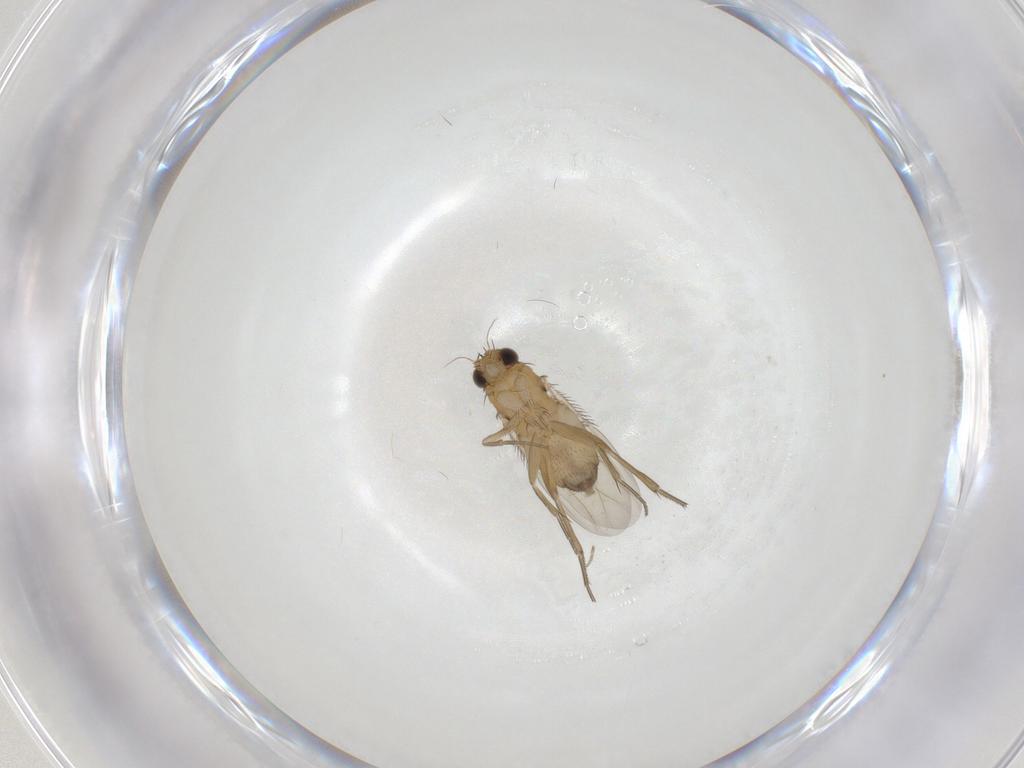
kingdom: Animalia
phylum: Arthropoda
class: Insecta
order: Diptera
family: Phoridae
